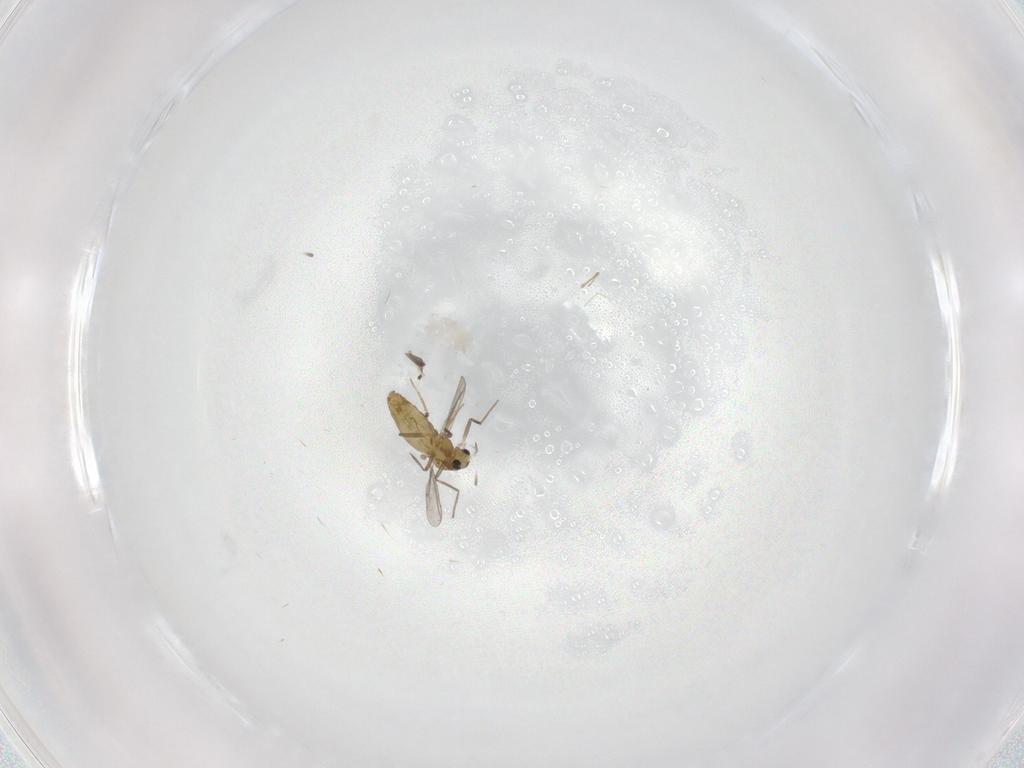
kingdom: Animalia
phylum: Arthropoda
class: Insecta
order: Diptera
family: Chironomidae
